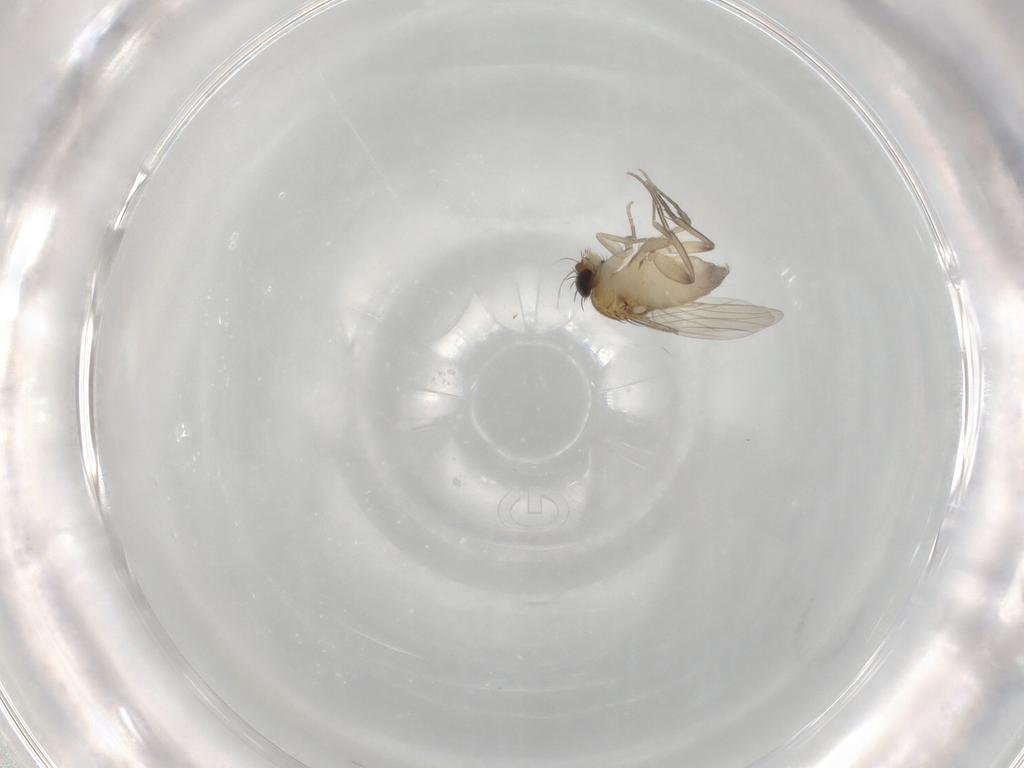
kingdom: Animalia
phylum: Arthropoda
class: Insecta
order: Diptera
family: Phoridae
